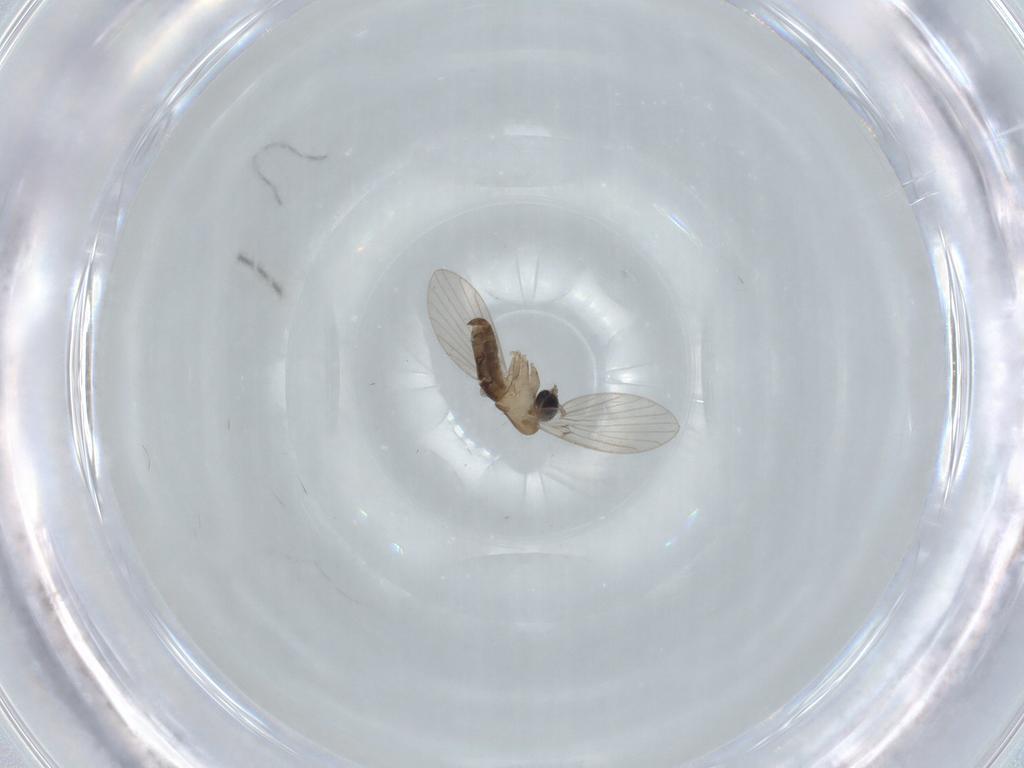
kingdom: Animalia
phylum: Arthropoda
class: Insecta
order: Diptera
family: Psychodidae
